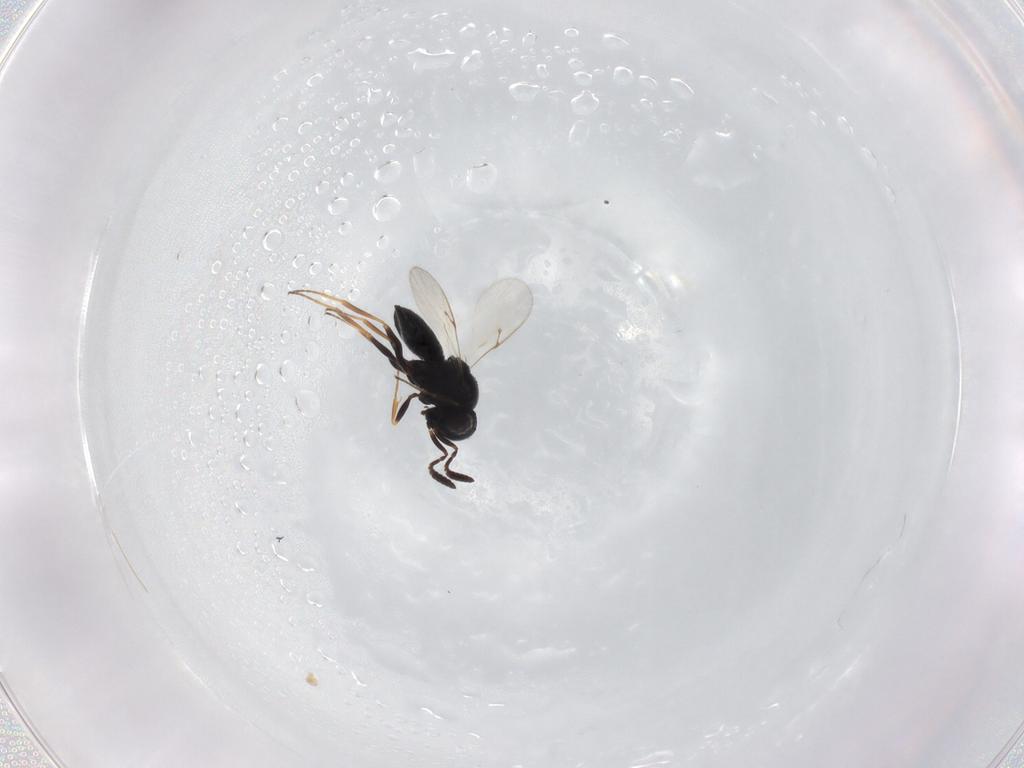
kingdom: Animalia
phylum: Arthropoda
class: Insecta
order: Hymenoptera
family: Scelionidae
